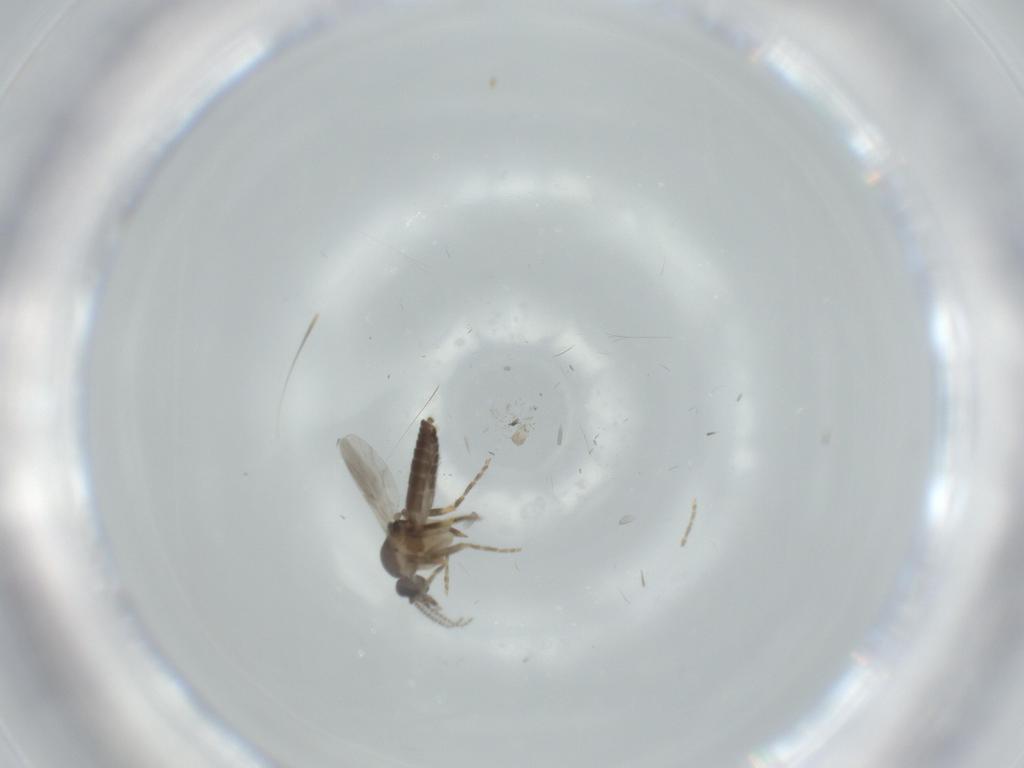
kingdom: Animalia
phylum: Arthropoda
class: Insecta
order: Diptera
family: Ceratopogonidae
